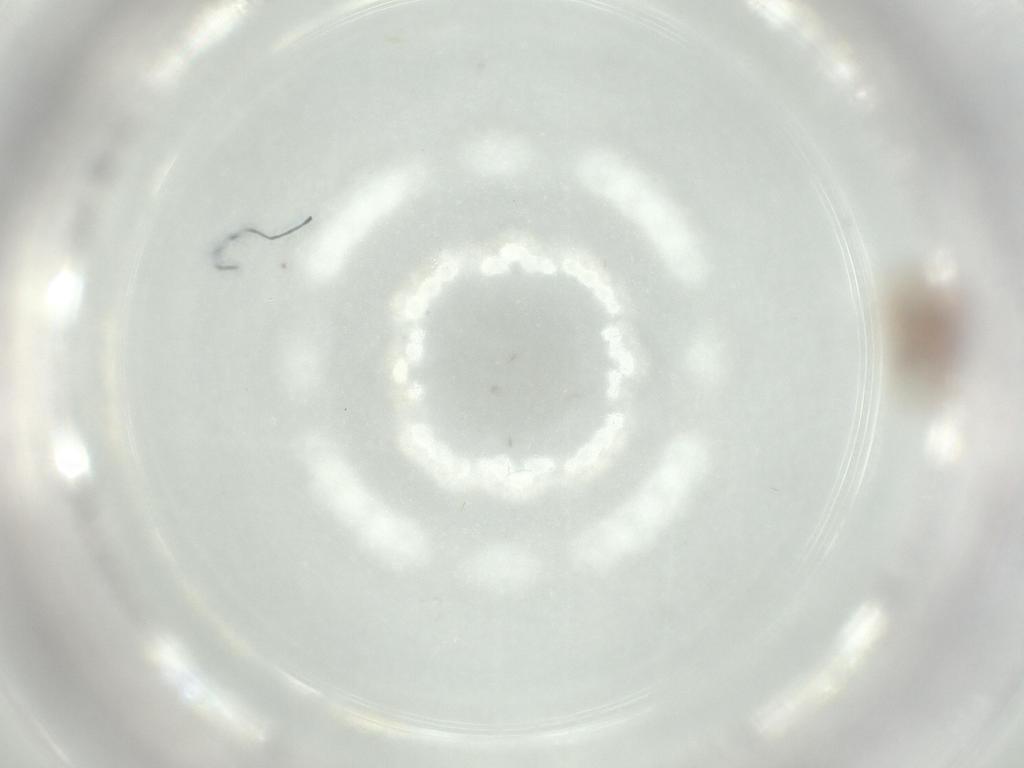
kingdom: Animalia
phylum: Arthropoda
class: Insecta
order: Coleoptera
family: Staphylinidae
